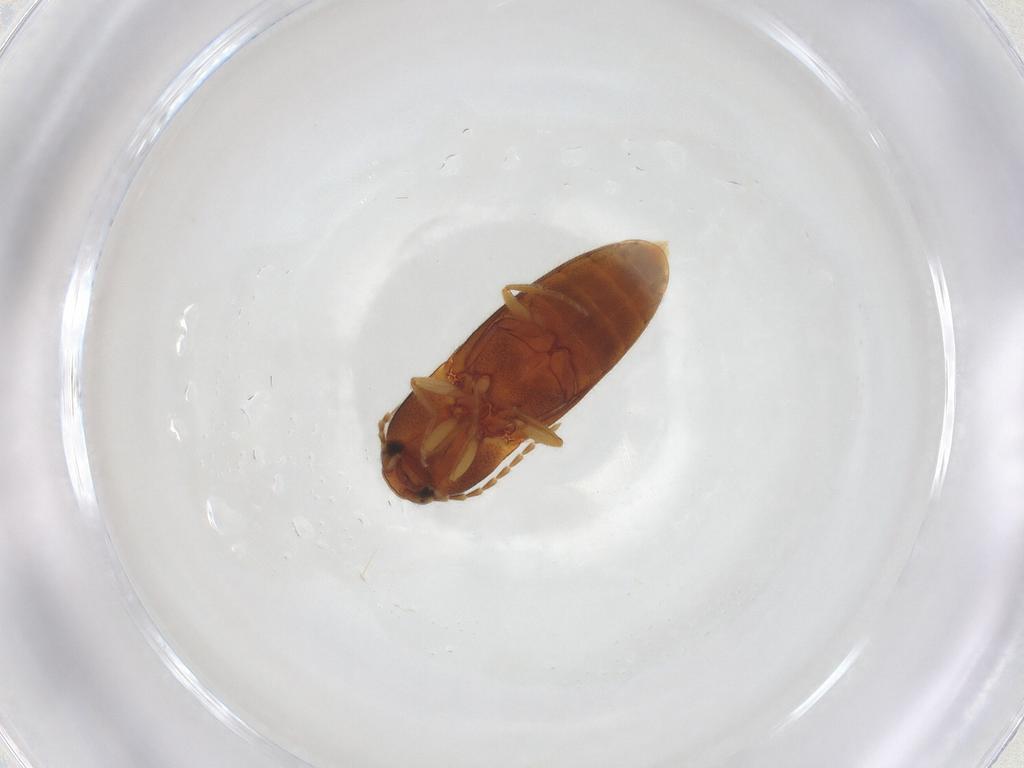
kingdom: Animalia
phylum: Arthropoda
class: Insecta
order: Coleoptera
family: Elateridae
